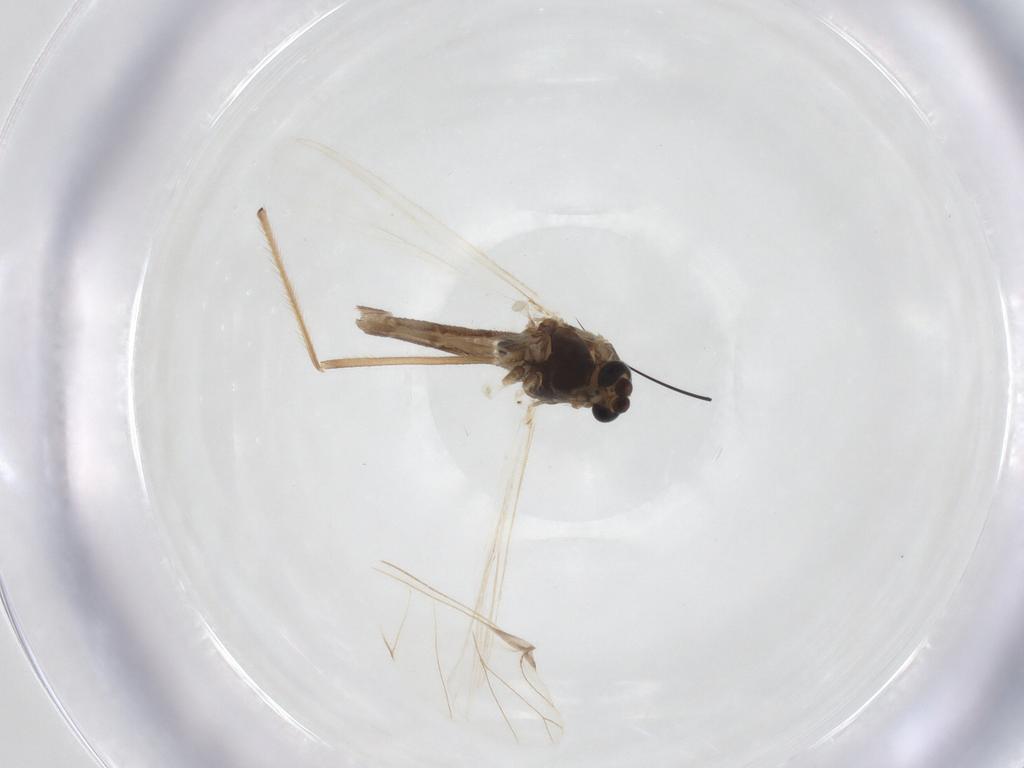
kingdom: Animalia
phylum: Arthropoda
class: Insecta
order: Diptera
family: Chironomidae
